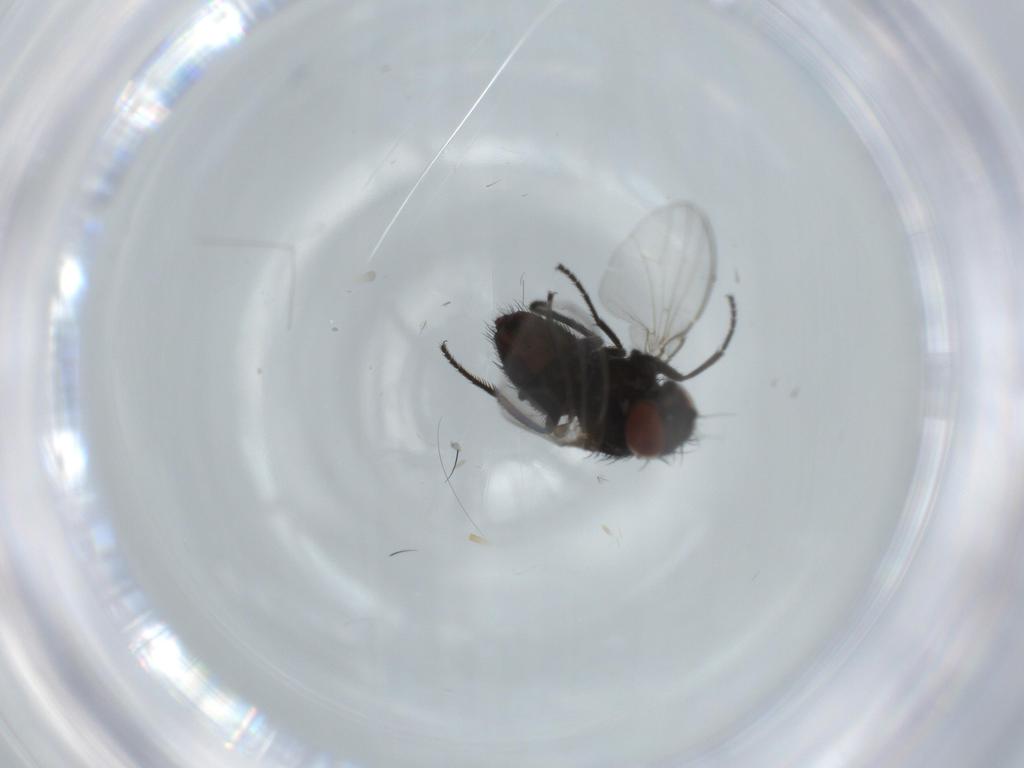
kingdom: Animalia
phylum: Arthropoda
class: Insecta
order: Diptera
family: Milichiidae
